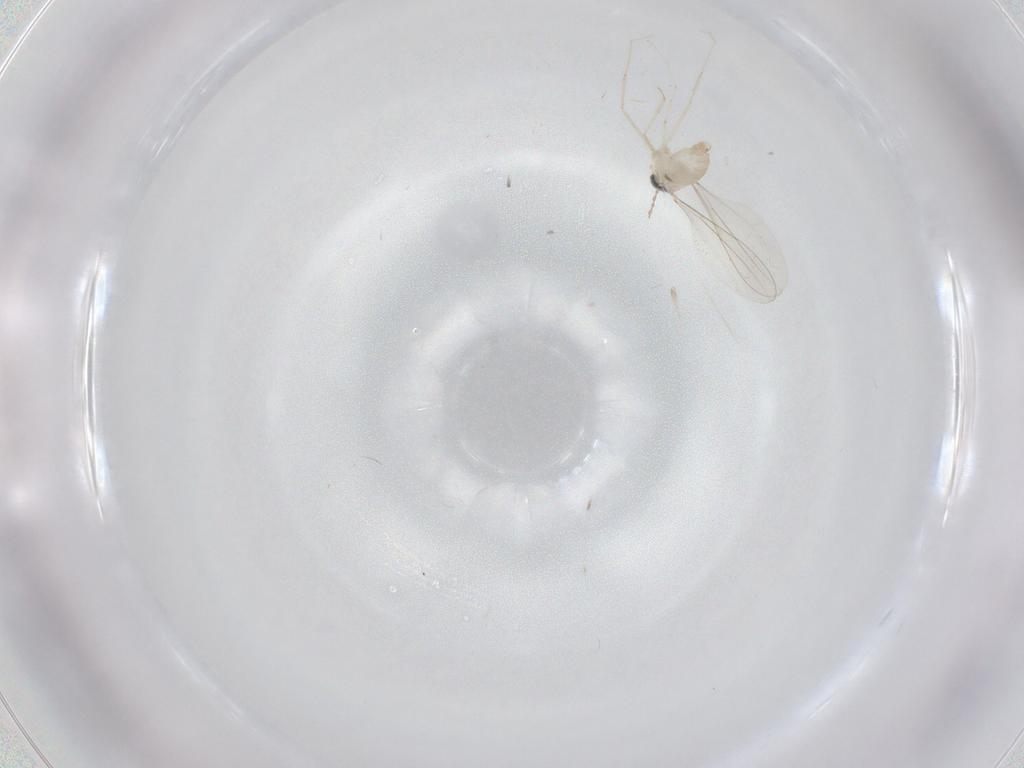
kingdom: Animalia
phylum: Arthropoda
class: Insecta
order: Diptera
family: Cecidomyiidae
